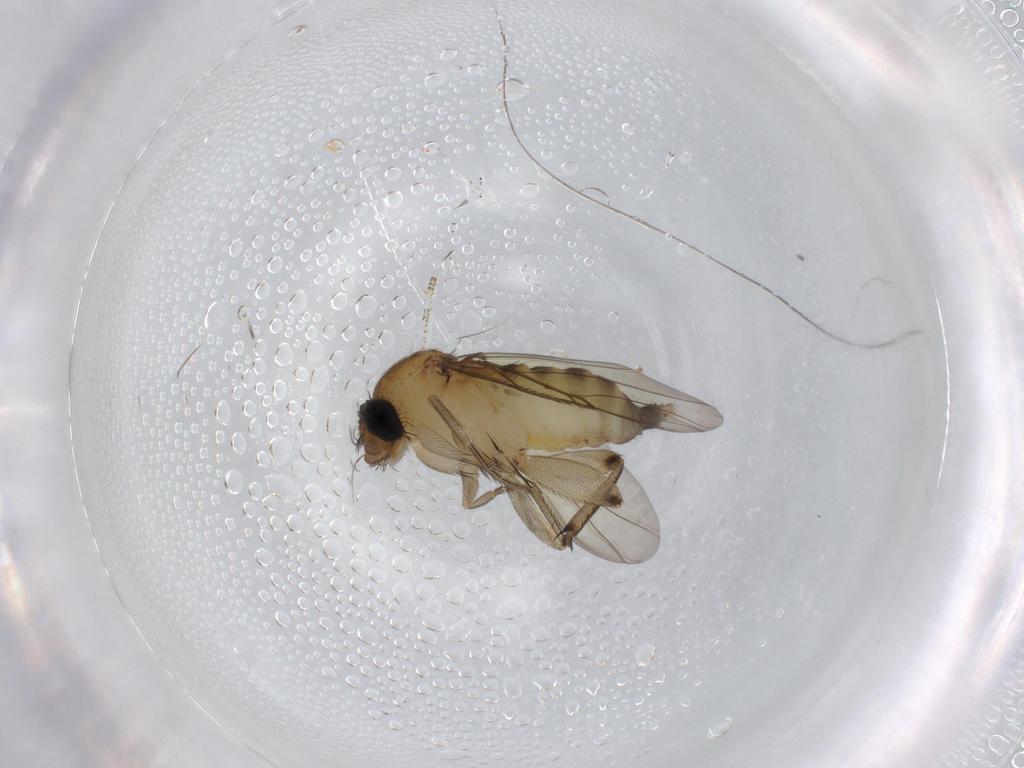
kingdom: Animalia
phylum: Arthropoda
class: Insecta
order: Diptera
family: Phoridae
